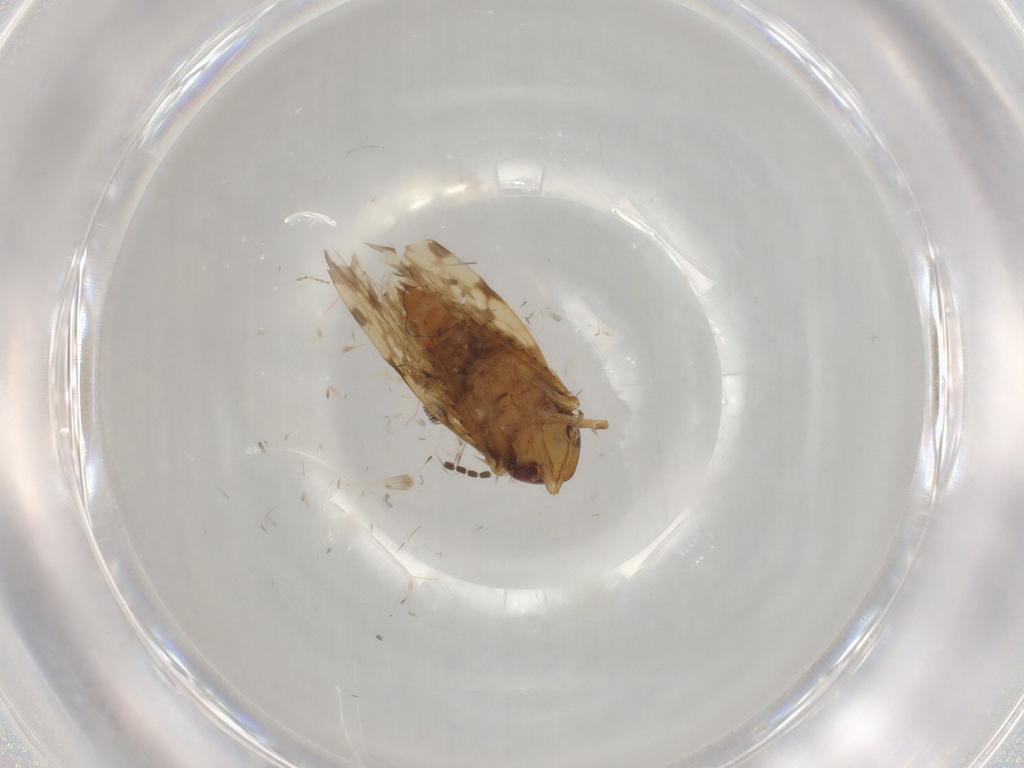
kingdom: Animalia
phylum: Arthropoda
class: Insecta
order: Hemiptera
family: Cicadellidae
